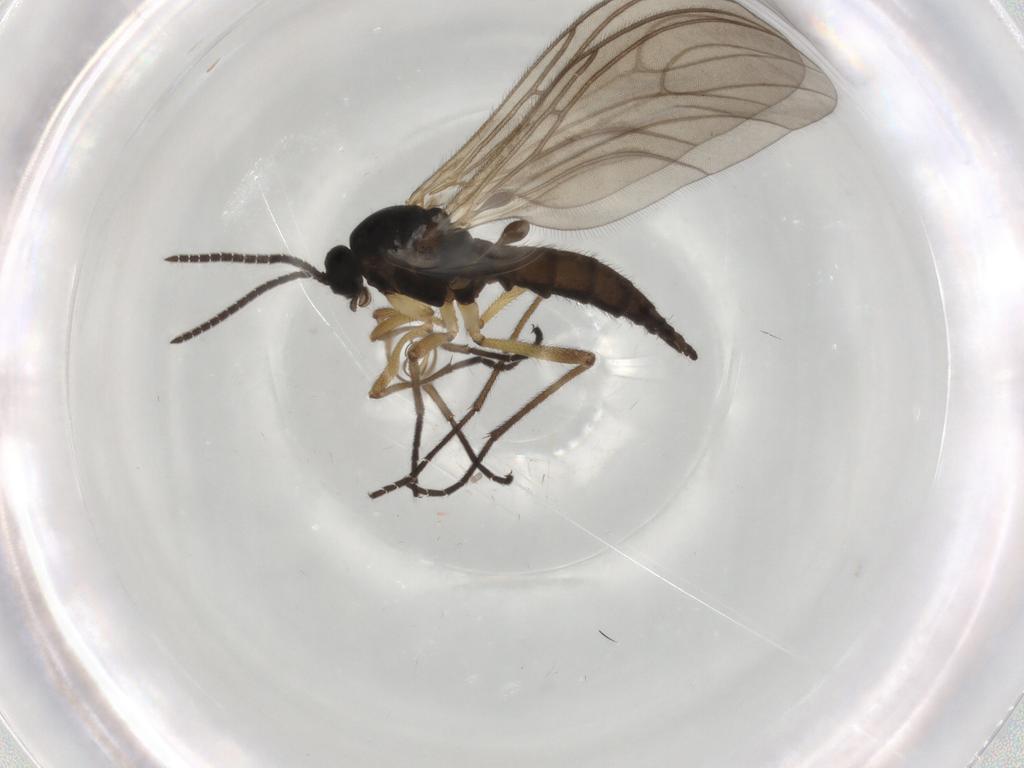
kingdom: Animalia
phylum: Arthropoda
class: Insecta
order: Diptera
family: Sciaridae
